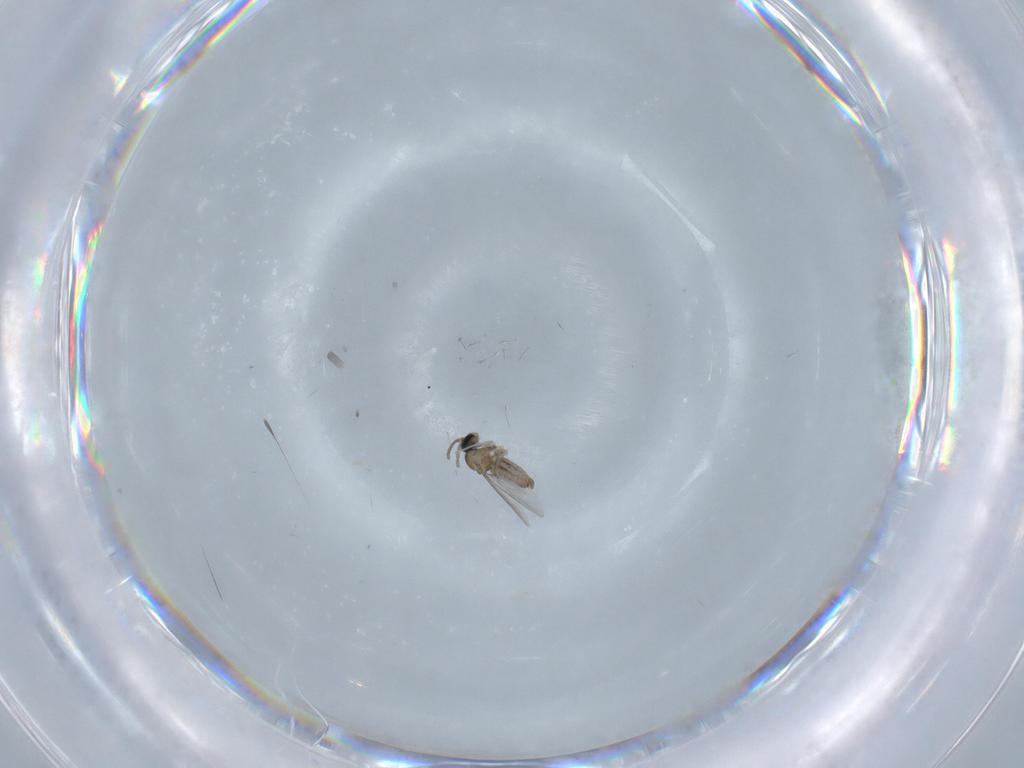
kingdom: Animalia
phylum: Arthropoda
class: Insecta
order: Diptera
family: Cecidomyiidae
